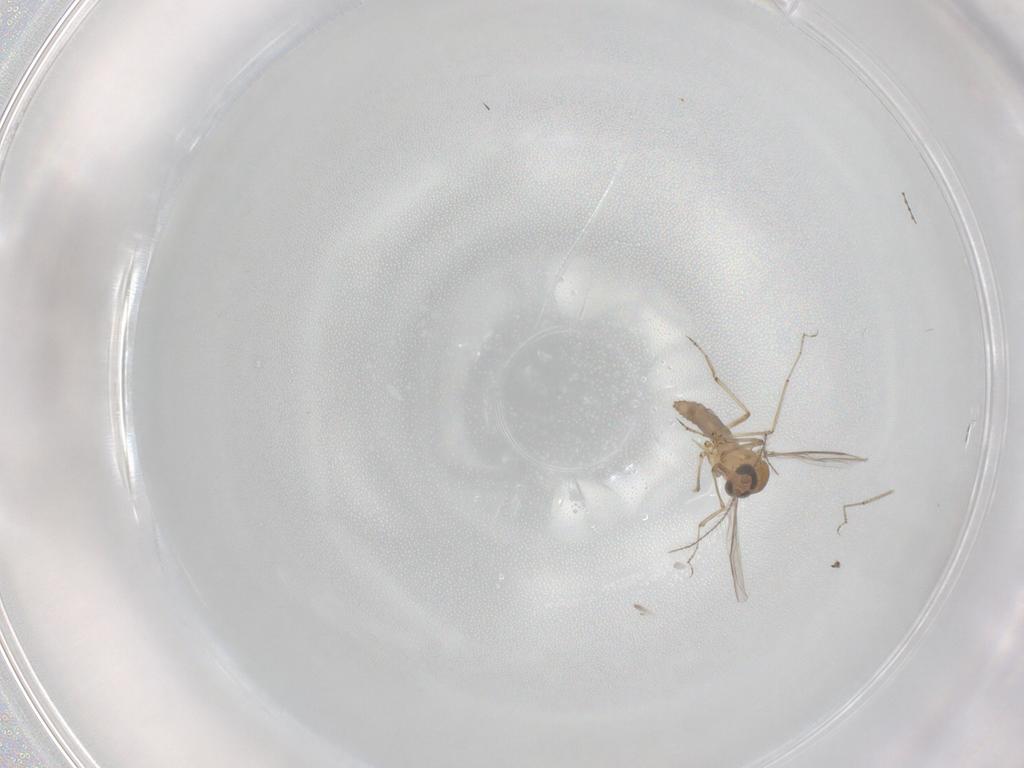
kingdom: Animalia
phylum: Arthropoda
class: Insecta
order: Diptera
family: Ceratopogonidae
